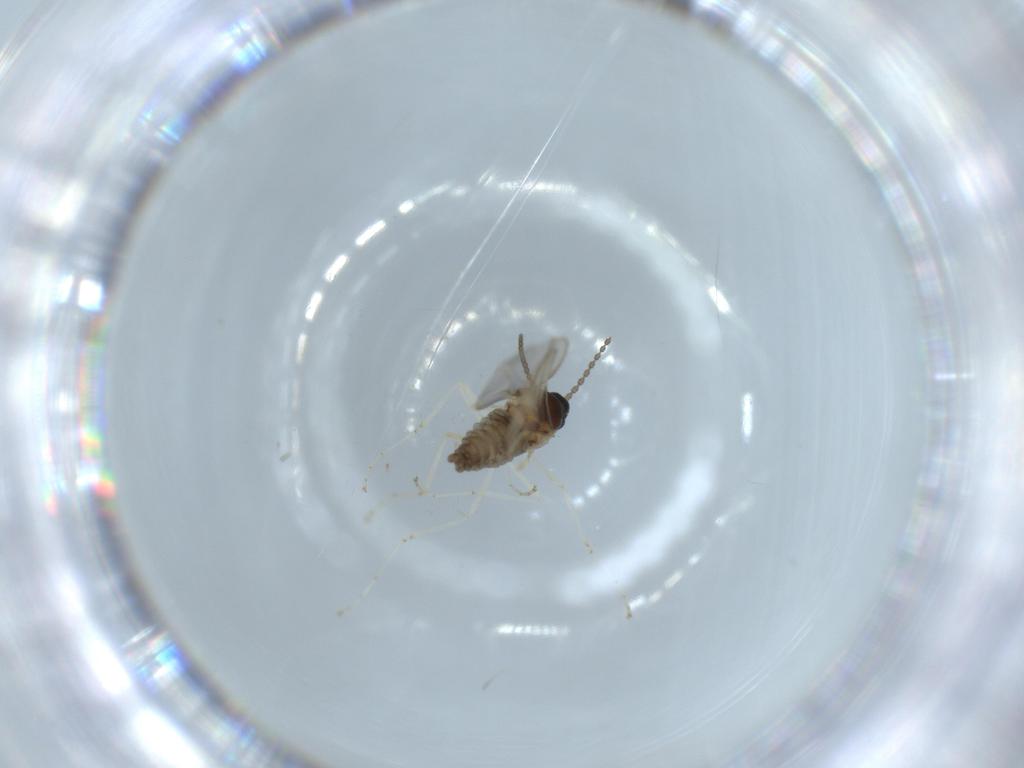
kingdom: Animalia
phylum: Arthropoda
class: Insecta
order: Diptera
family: Cecidomyiidae
